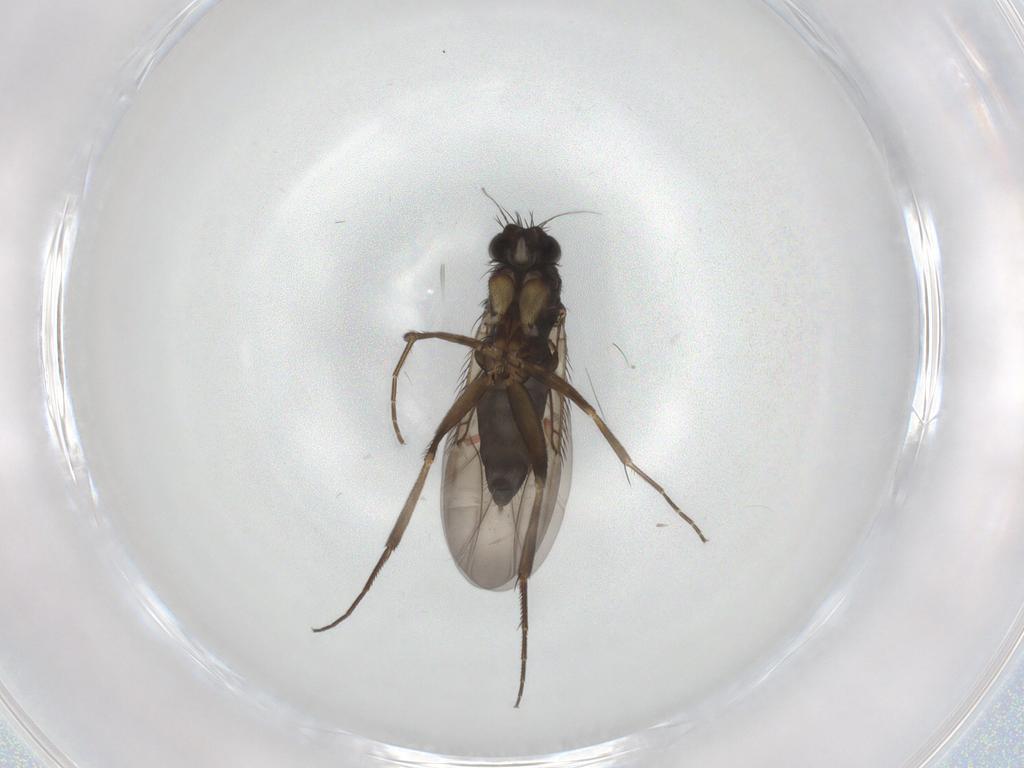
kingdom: Animalia
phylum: Arthropoda
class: Insecta
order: Diptera
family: Phoridae
